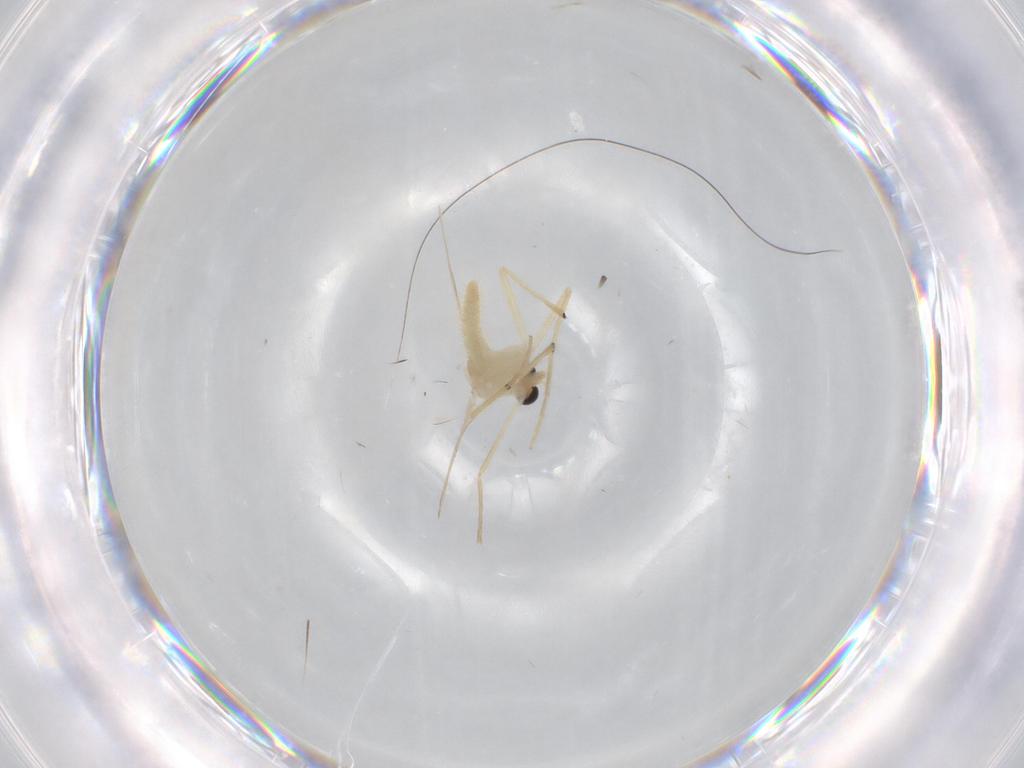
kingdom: Animalia
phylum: Arthropoda
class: Insecta
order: Diptera
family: Chironomidae
